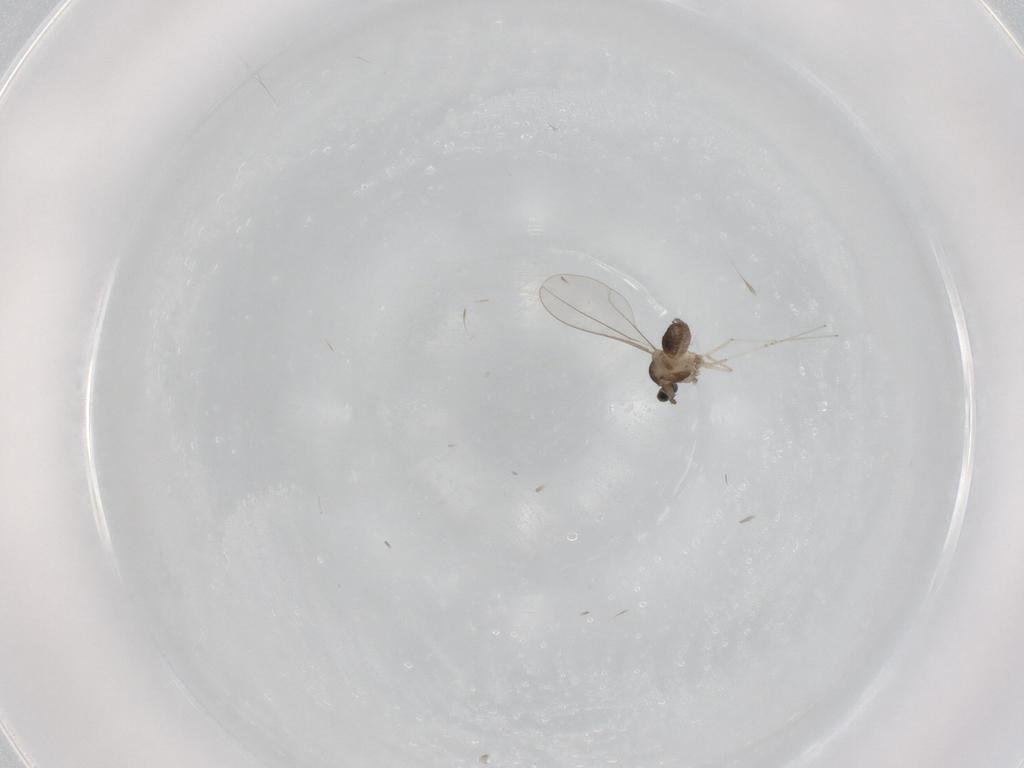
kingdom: Animalia
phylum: Arthropoda
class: Insecta
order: Diptera
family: Cecidomyiidae
